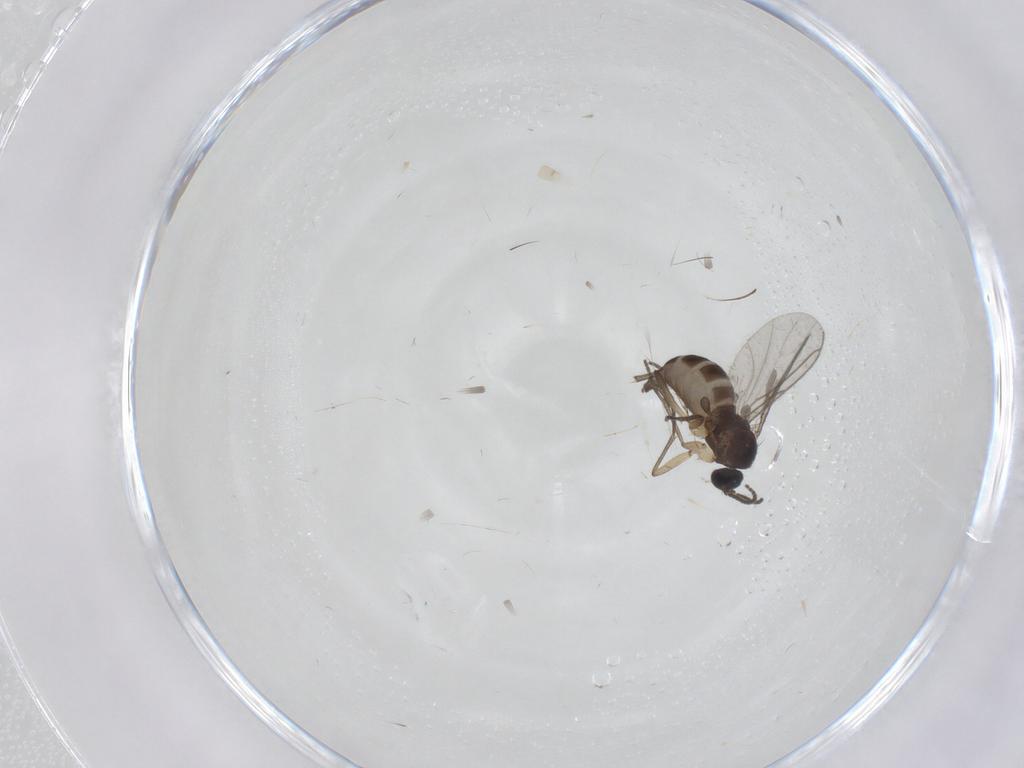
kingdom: Animalia
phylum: Arthropoda
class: Insecta
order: Diptera
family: Sciaridae
